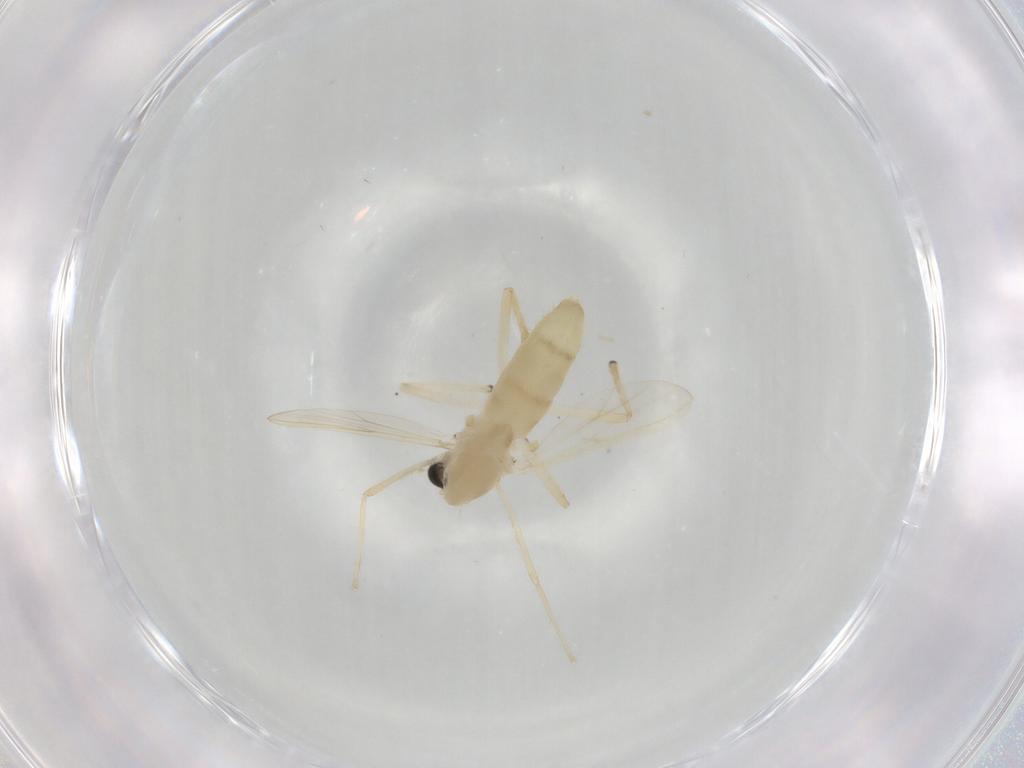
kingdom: Animalia
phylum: Arthropoda
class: Insecta
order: Diptera
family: Chironomidae
